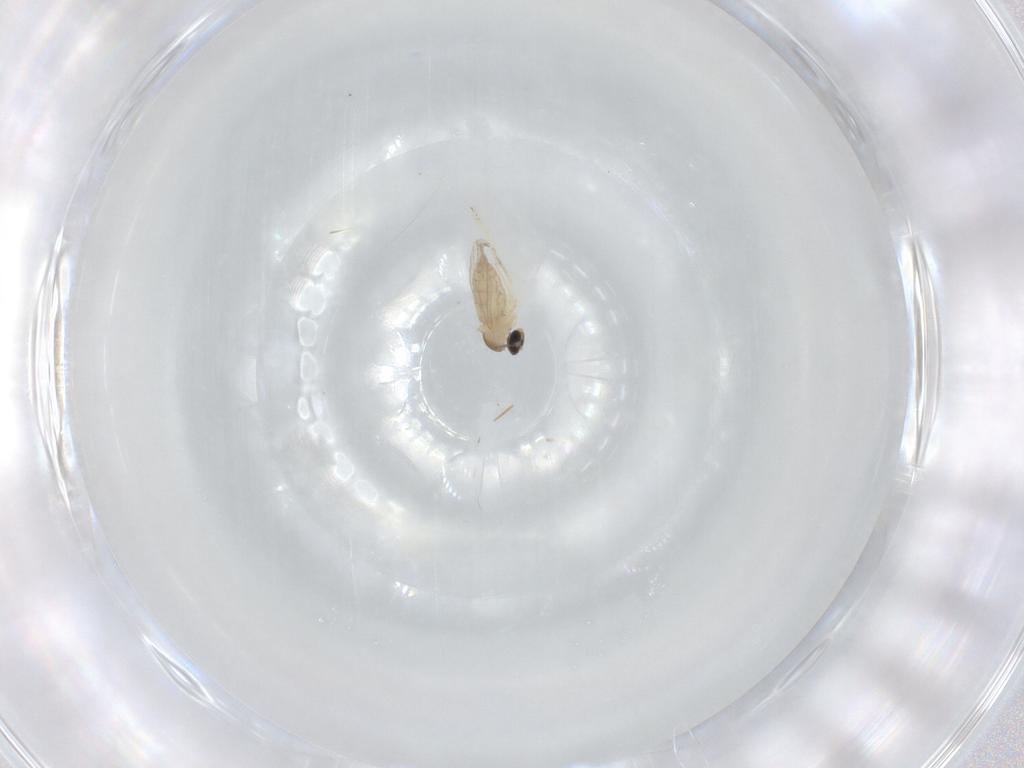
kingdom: Animalia
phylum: Arthropoda
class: Insecta
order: Diptera
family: Cecidomyiidae
